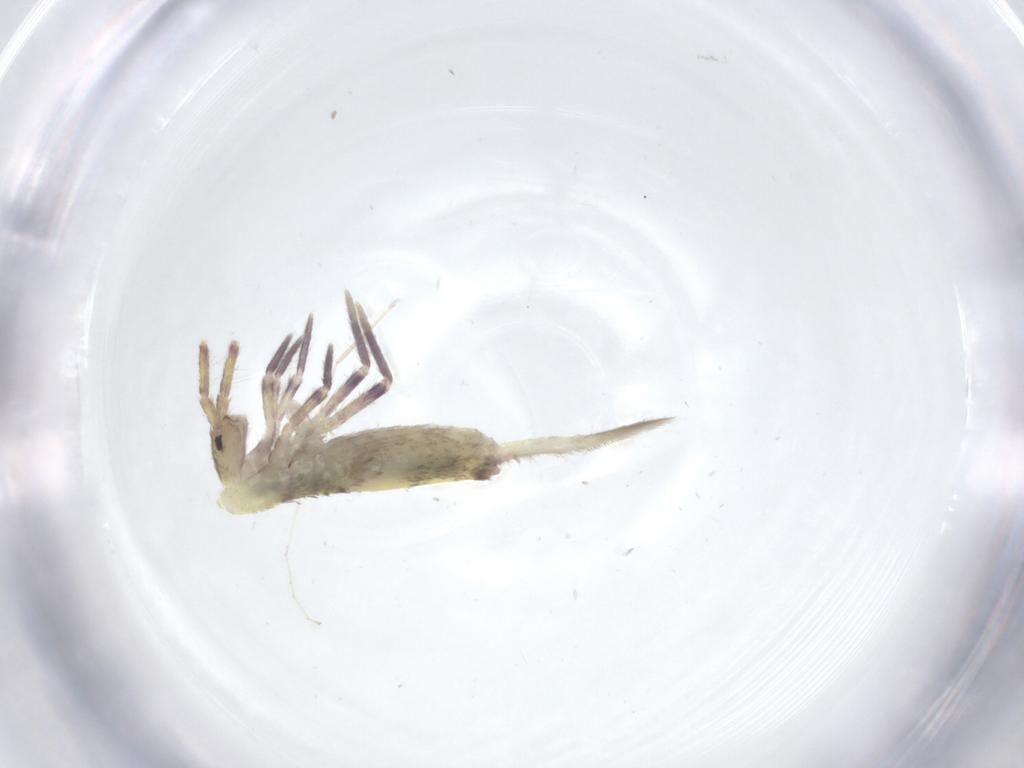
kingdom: Animalia
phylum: Arthropoda
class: Collembola
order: Entomobryomorpha
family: Entomobryidae
